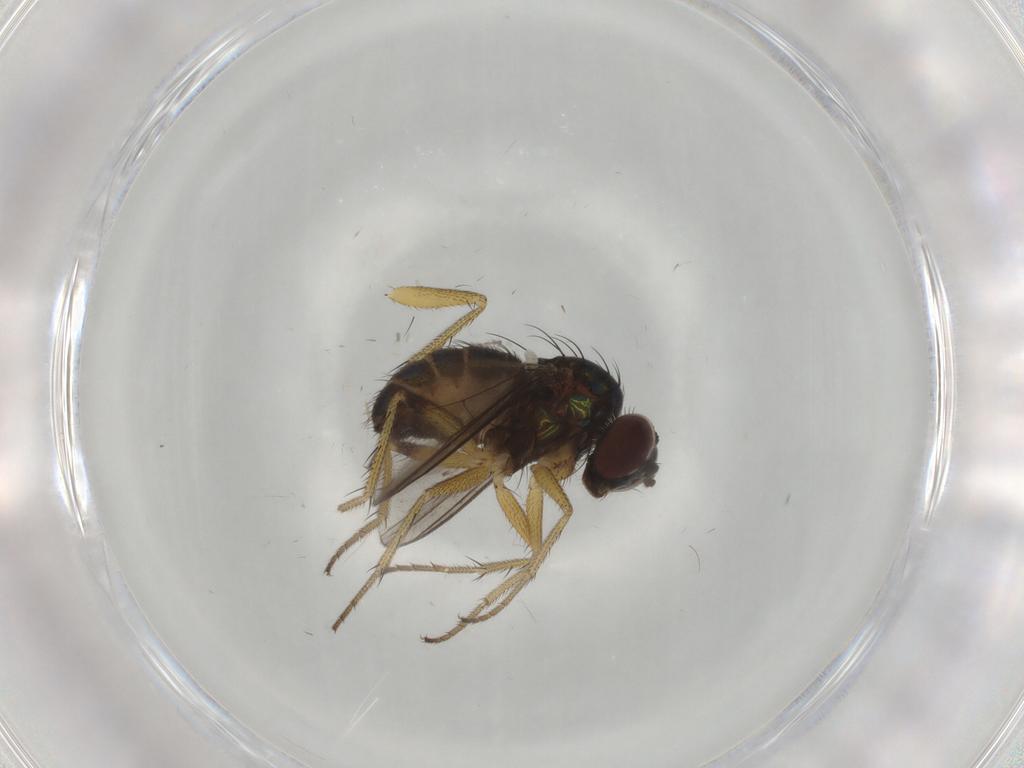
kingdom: Animalia
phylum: Arthropoda
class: Insecta
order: Diptera
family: Dolichopodidae
